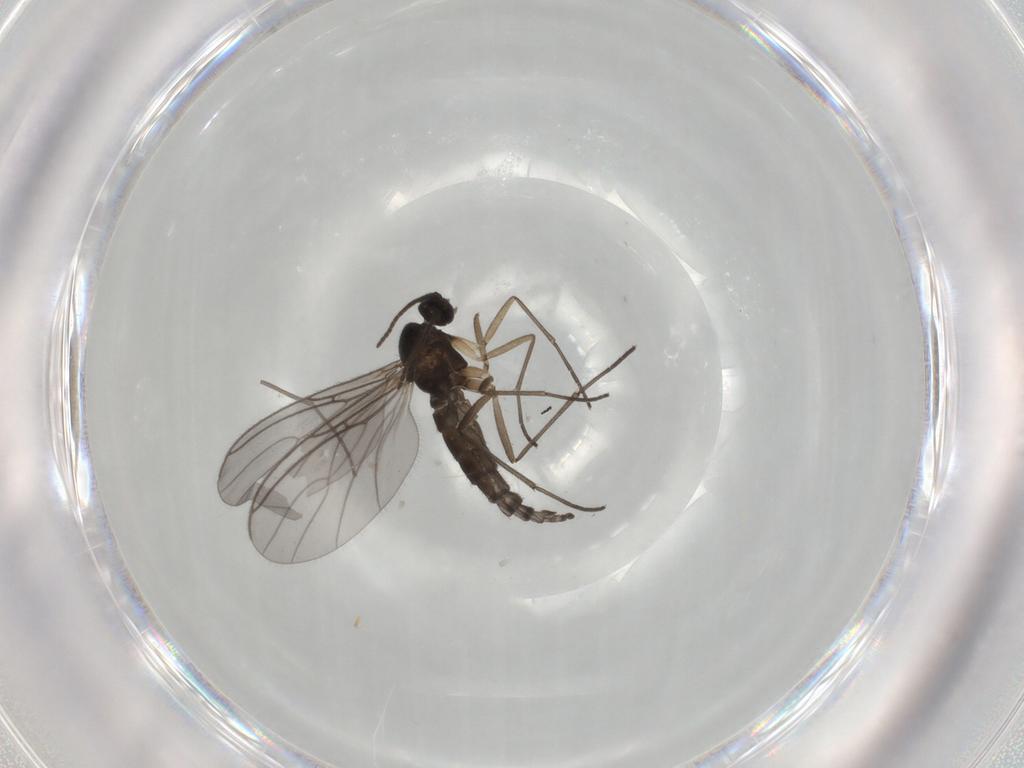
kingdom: Animalia
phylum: Arthropoda
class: Insecta
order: Diptera
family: Sciaridae
